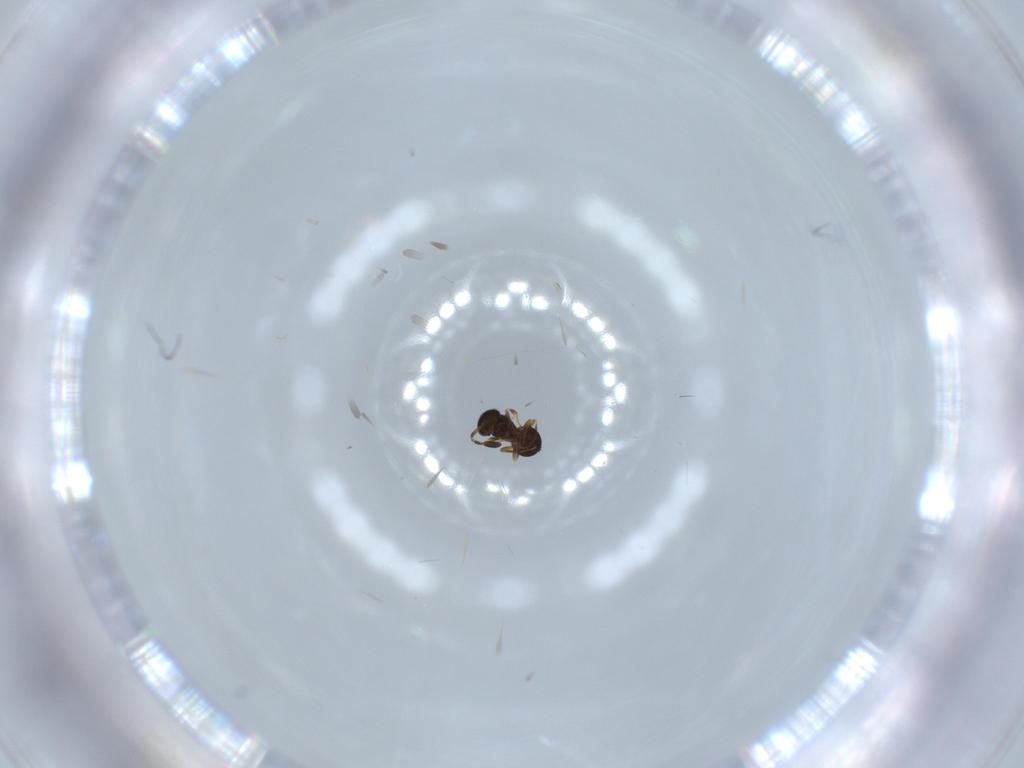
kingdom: Animalia
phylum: Arthropoda
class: Insecta
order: Hymenoptera
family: Scelionidae
